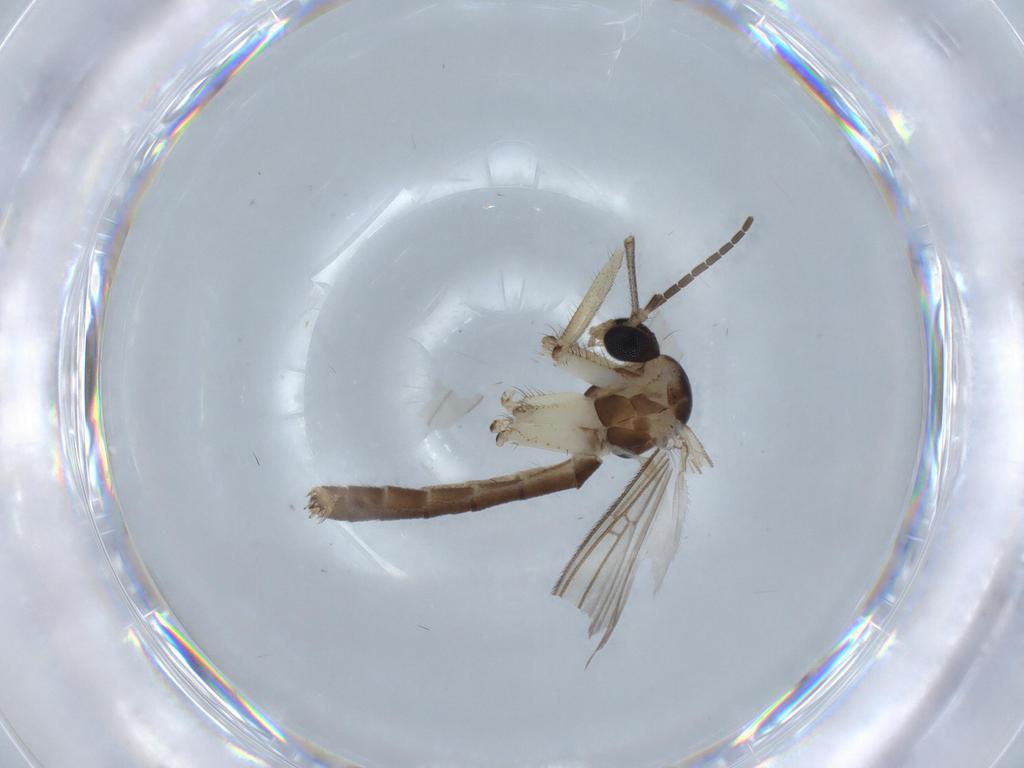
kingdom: Animalia
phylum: Arthropoda
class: Insecta
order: Diptera
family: Mycetophilidae
